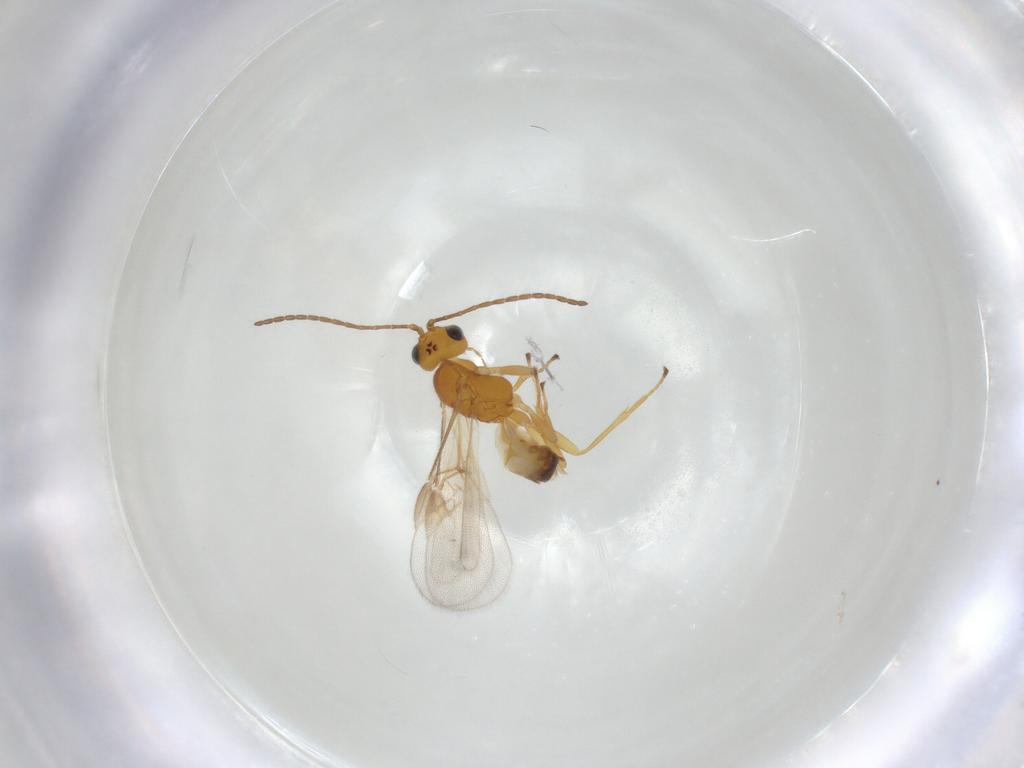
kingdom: Animalia
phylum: Arthropoda
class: Insecta
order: Hymenoptera
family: Braconidae
